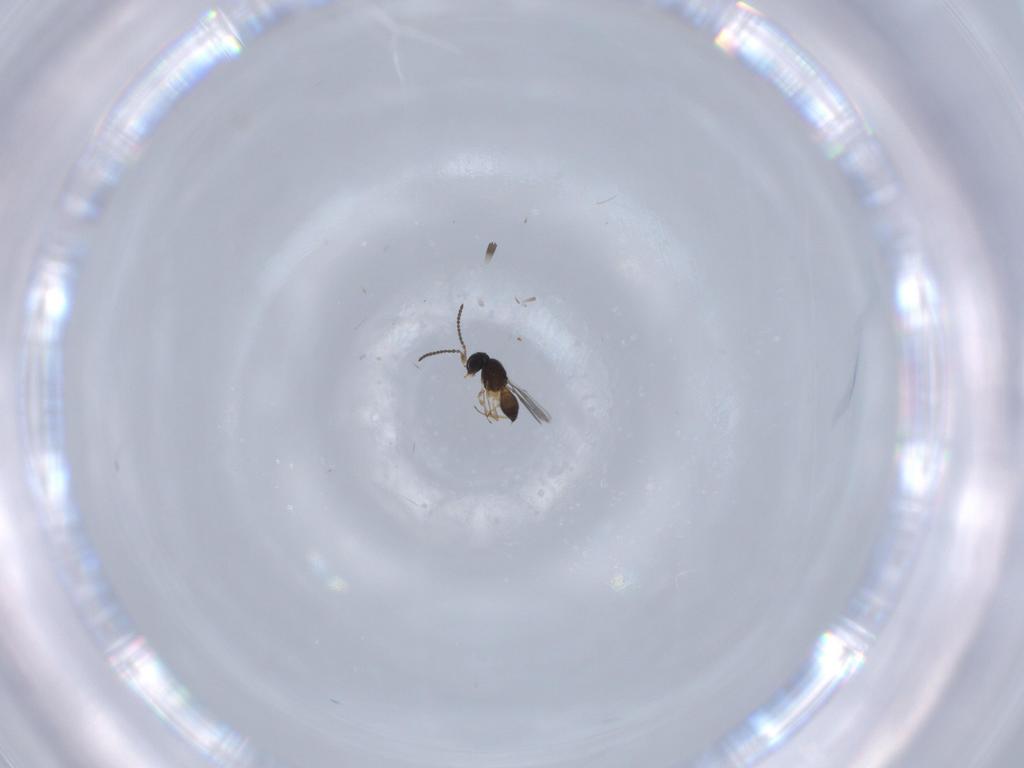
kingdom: Animalia
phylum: Arthropoda
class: Insecta
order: Hymenoptera
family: Scelionidae
